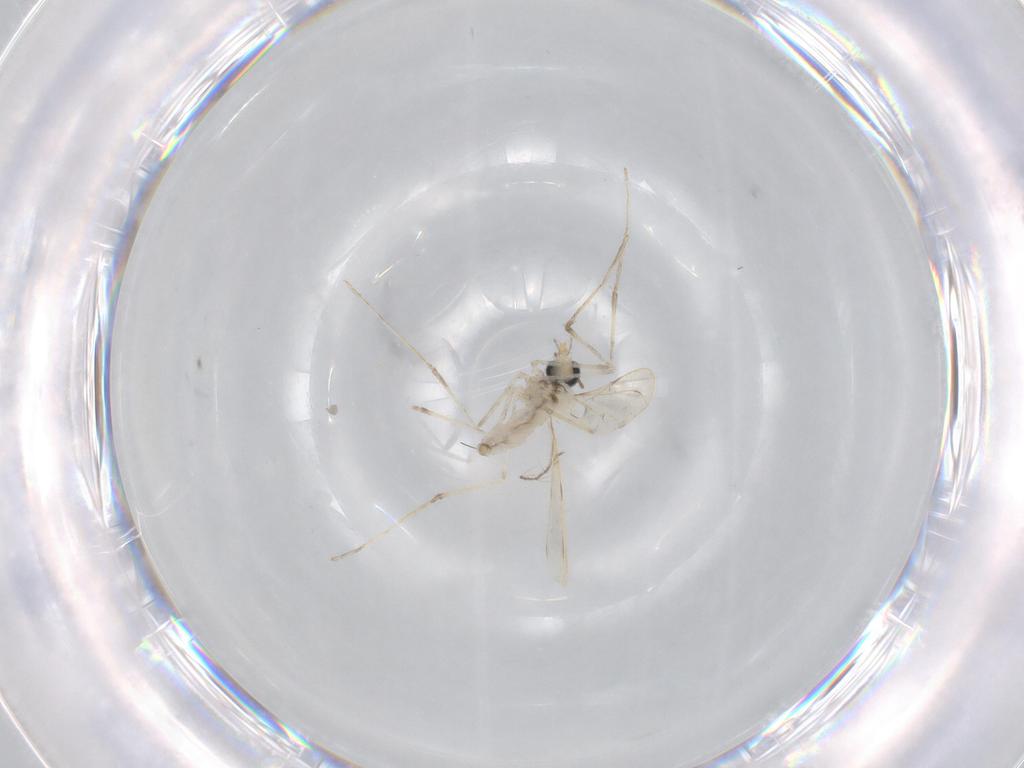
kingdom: Animalia
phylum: Arthropoda
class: Insecta
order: Diptera
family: Cecidomyiidae
